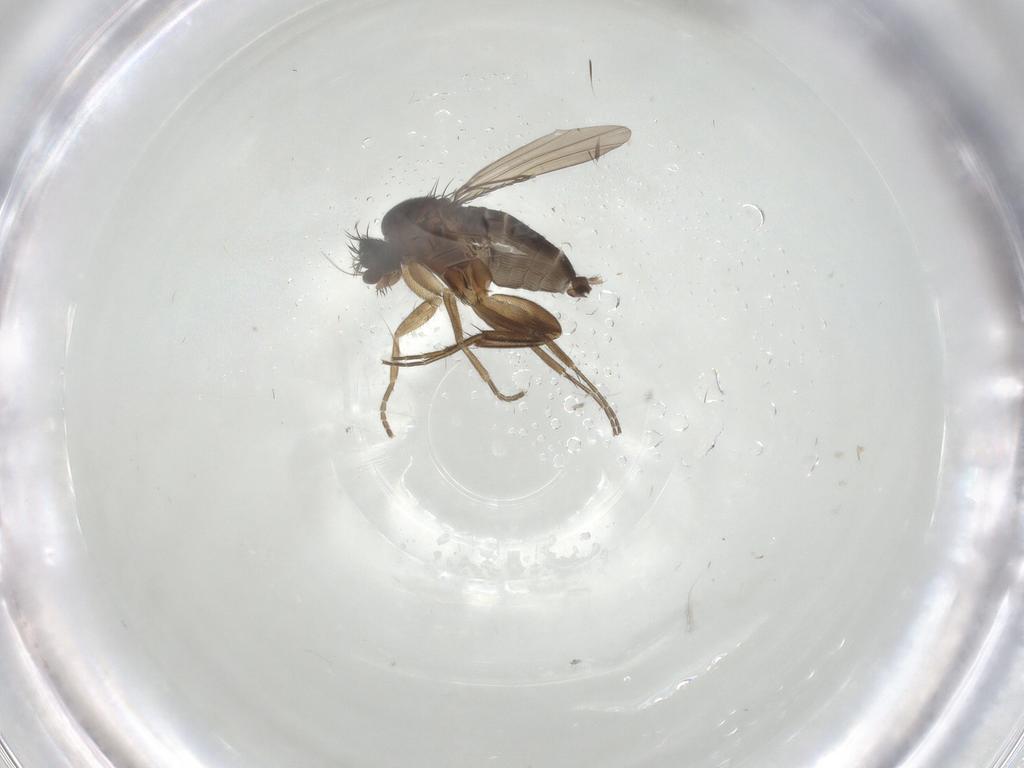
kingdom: Animalia
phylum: Arthropoda
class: Insecta
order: Diptera
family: Phoridae
